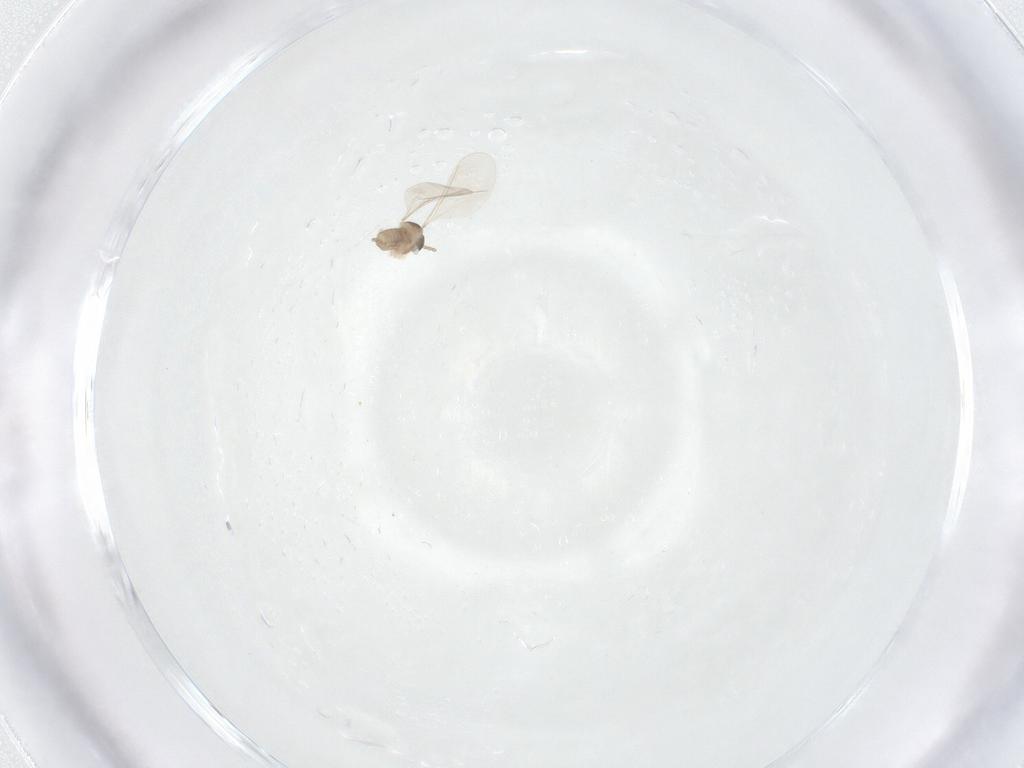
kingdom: Animalia
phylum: Arthropoda
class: Insecta
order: Diptera
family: Cecidomyiidae
